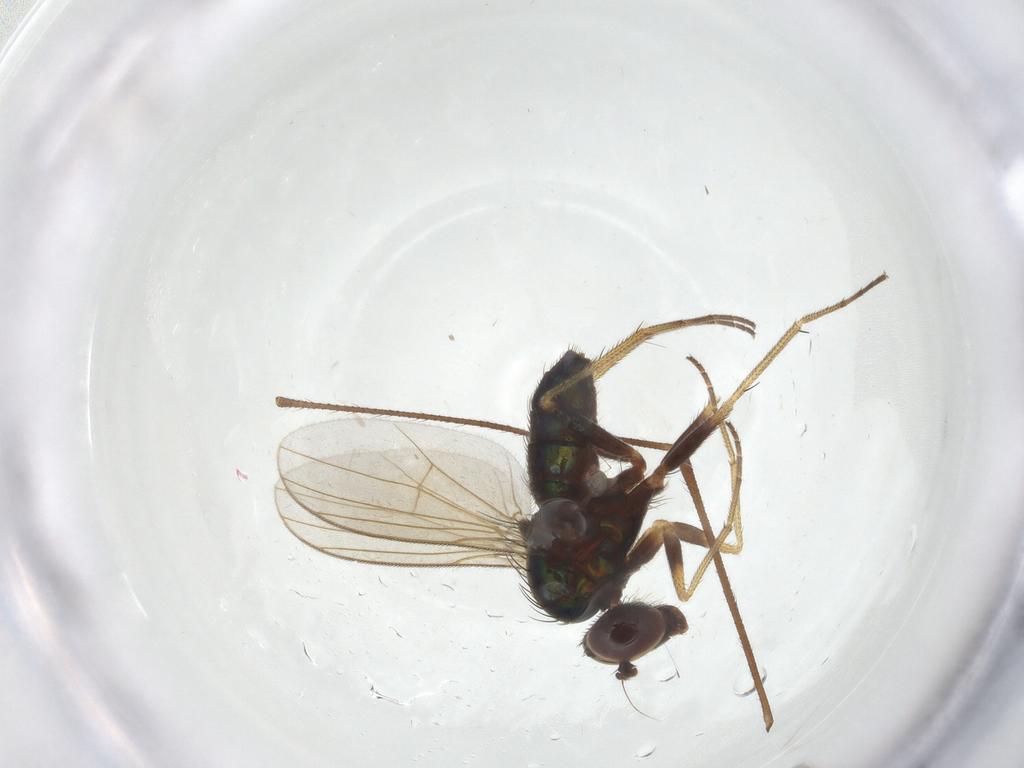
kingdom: Animalia
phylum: Arthropoda
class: Insecta
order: Diptera
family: Dolichopodidae
